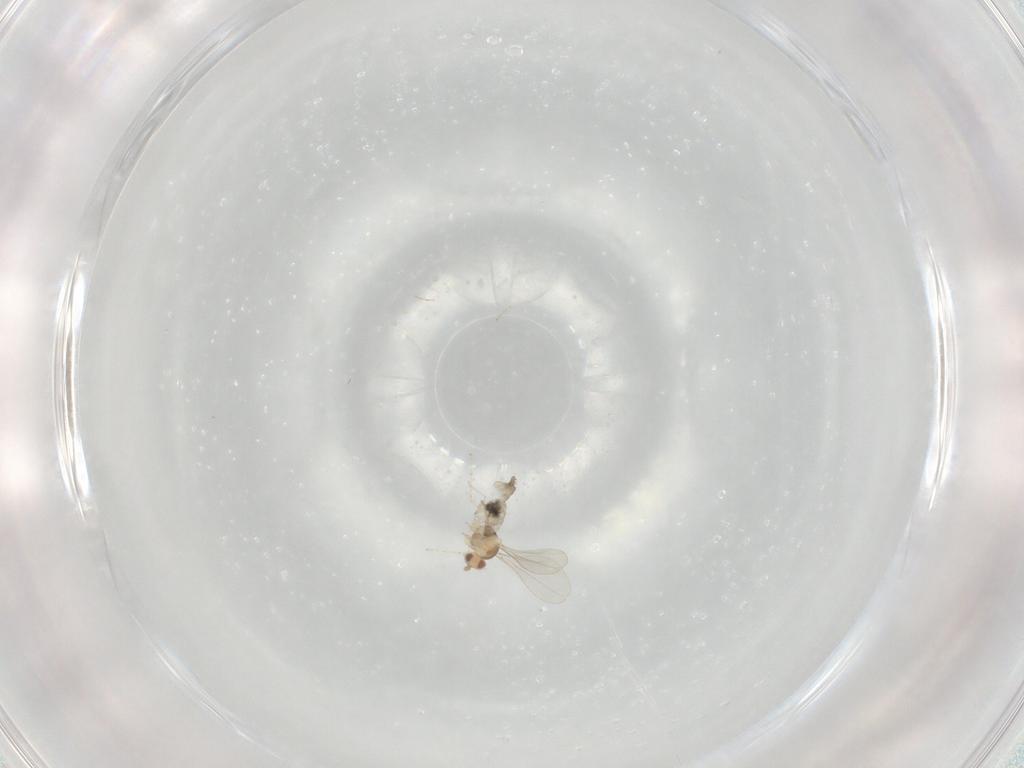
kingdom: Animalia
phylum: Arthropoda
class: Insecta
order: Diptera
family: Cecidomyiidae
